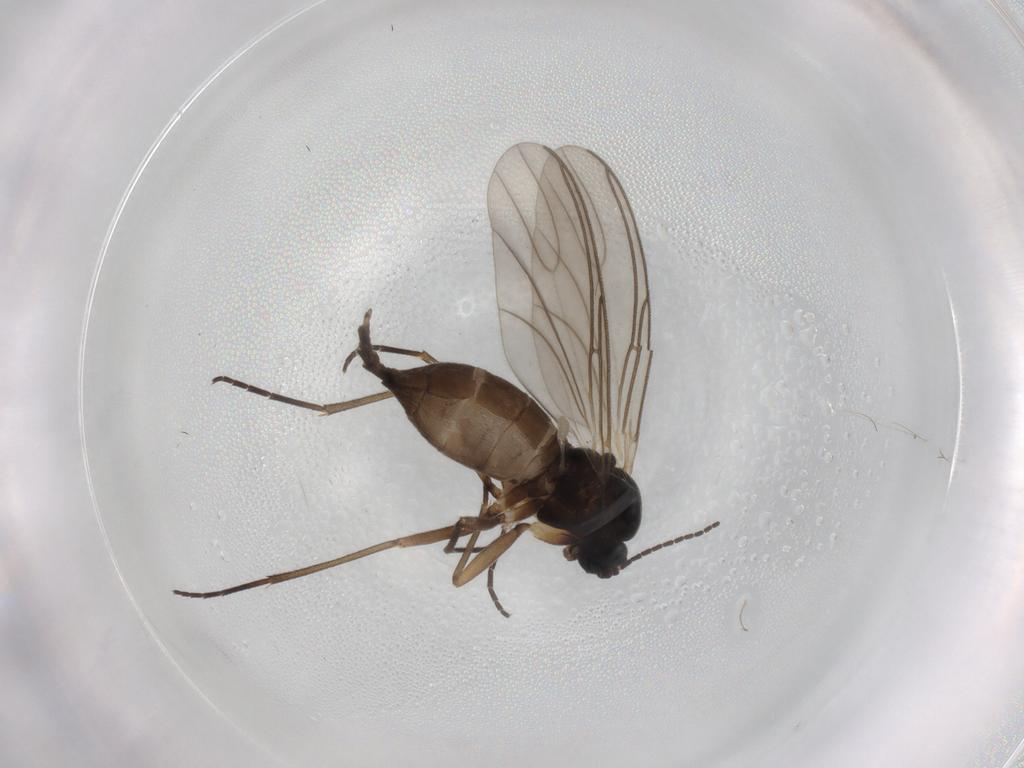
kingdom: Animalia
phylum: Arthropoda
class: Insecta
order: Diptera
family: Sciaridae
